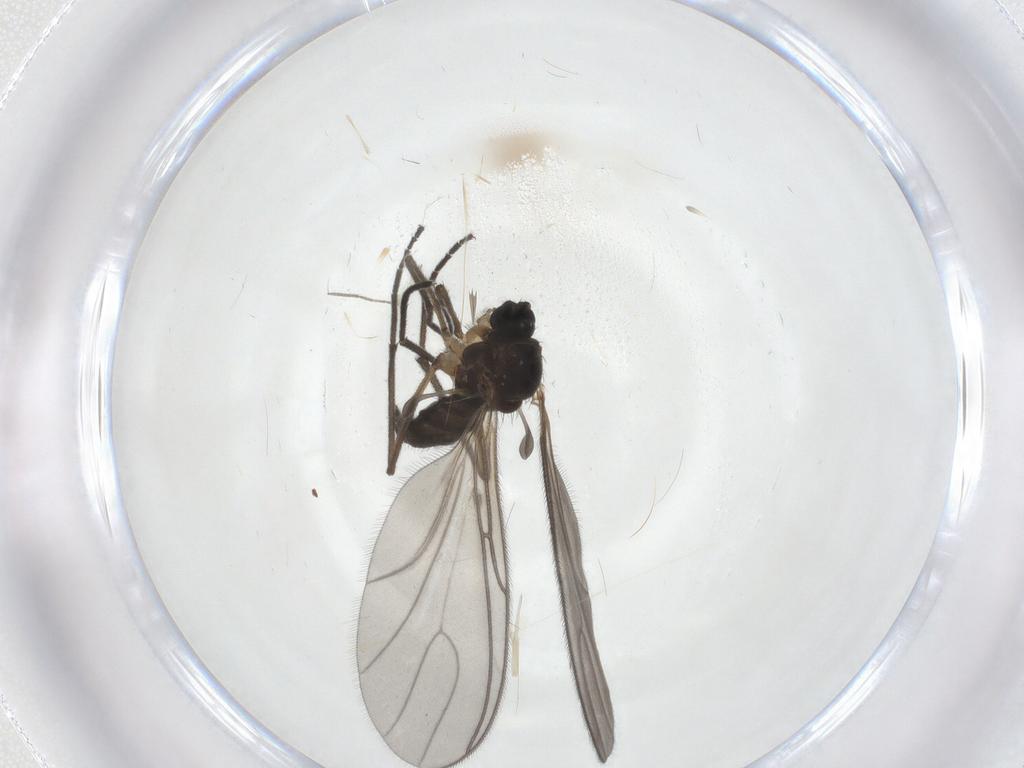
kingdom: Animalia
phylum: Arthropoda
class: Insecta
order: Diptera
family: Sciaridae
